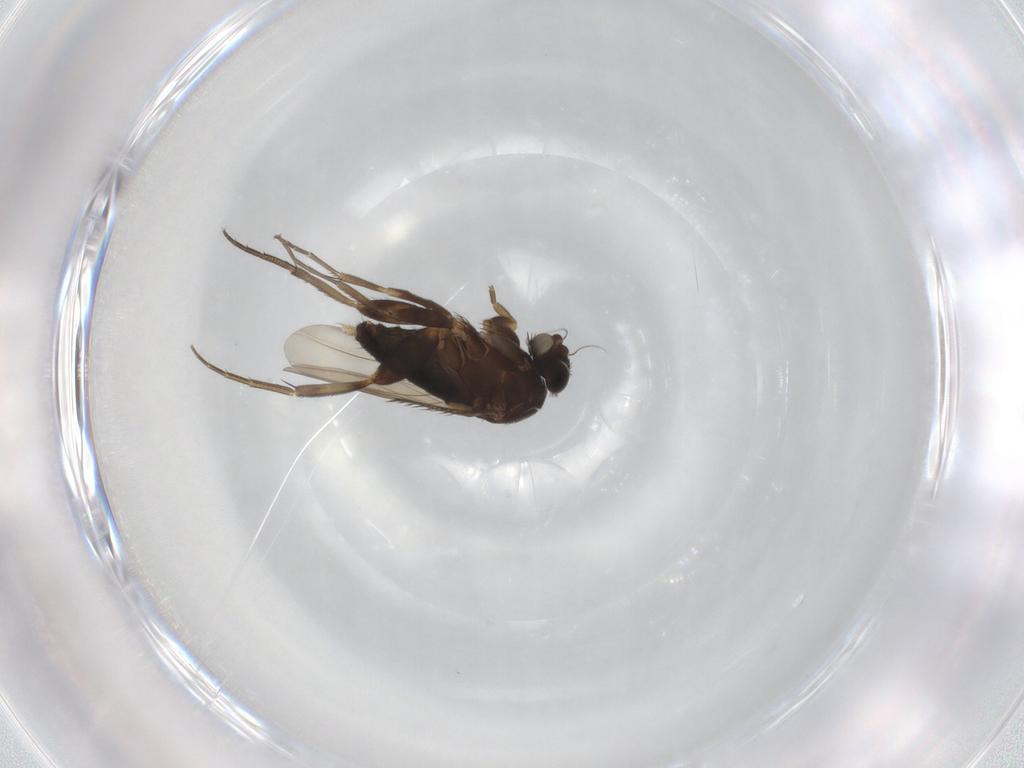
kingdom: Animalia
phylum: Arthropoda
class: Insecta
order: Diptera
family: Phoridae
